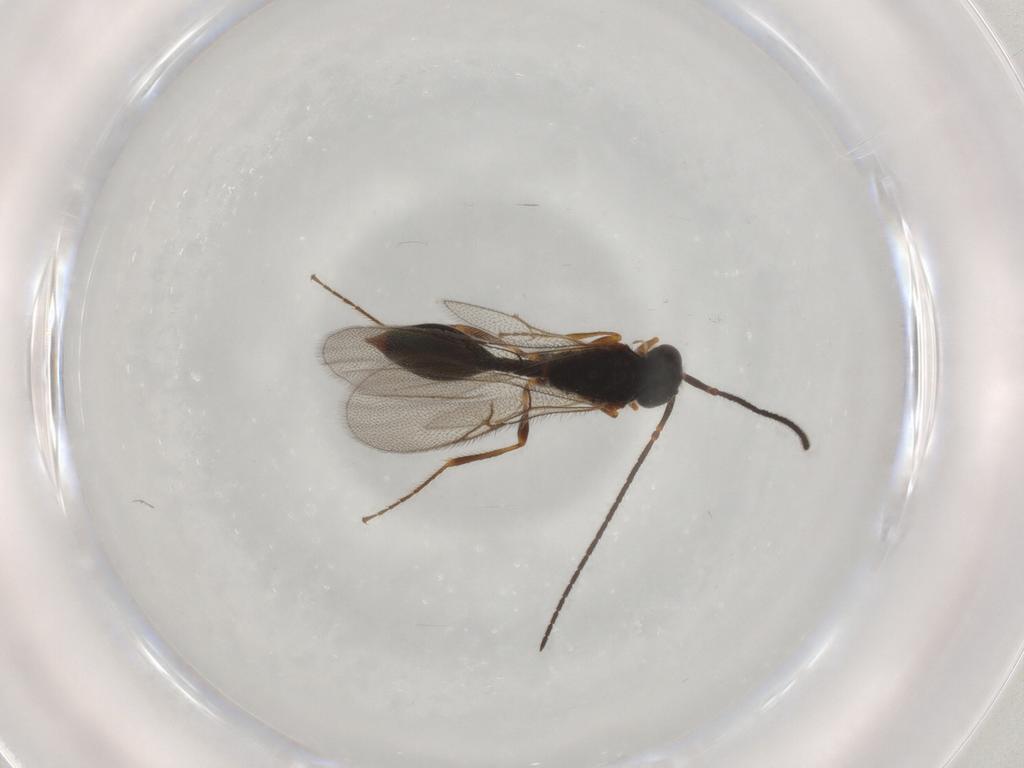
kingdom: Animalia
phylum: Arthropoda
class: Insecta
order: Hymenoptera
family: Diapriidae
